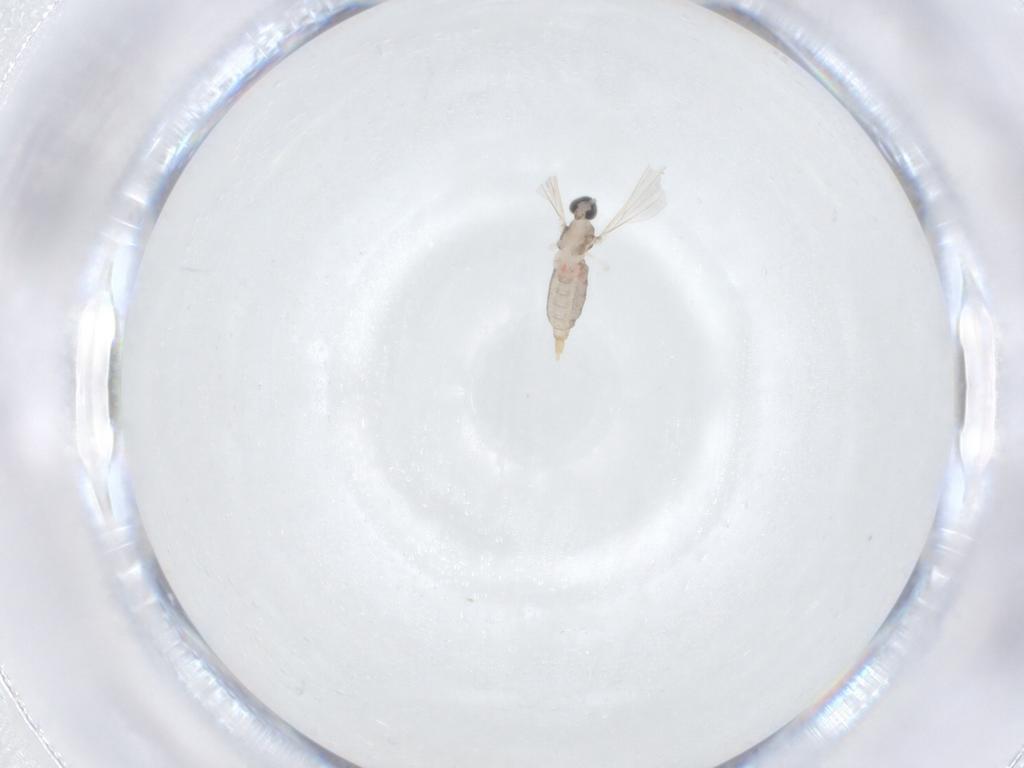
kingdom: Animalia
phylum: Arthropoda
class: Insecta
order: Diptera
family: Cecidomyiidae
